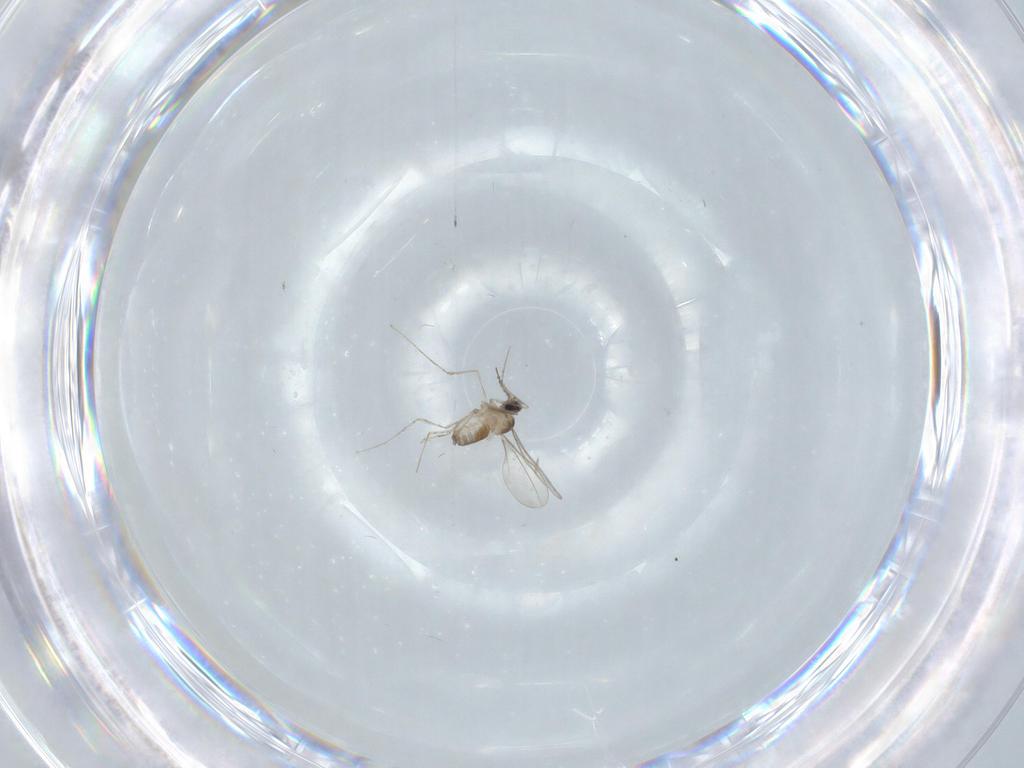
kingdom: Animalia
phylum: Arthropoda
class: Insecta
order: Diptera
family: Cecidomyiidae
